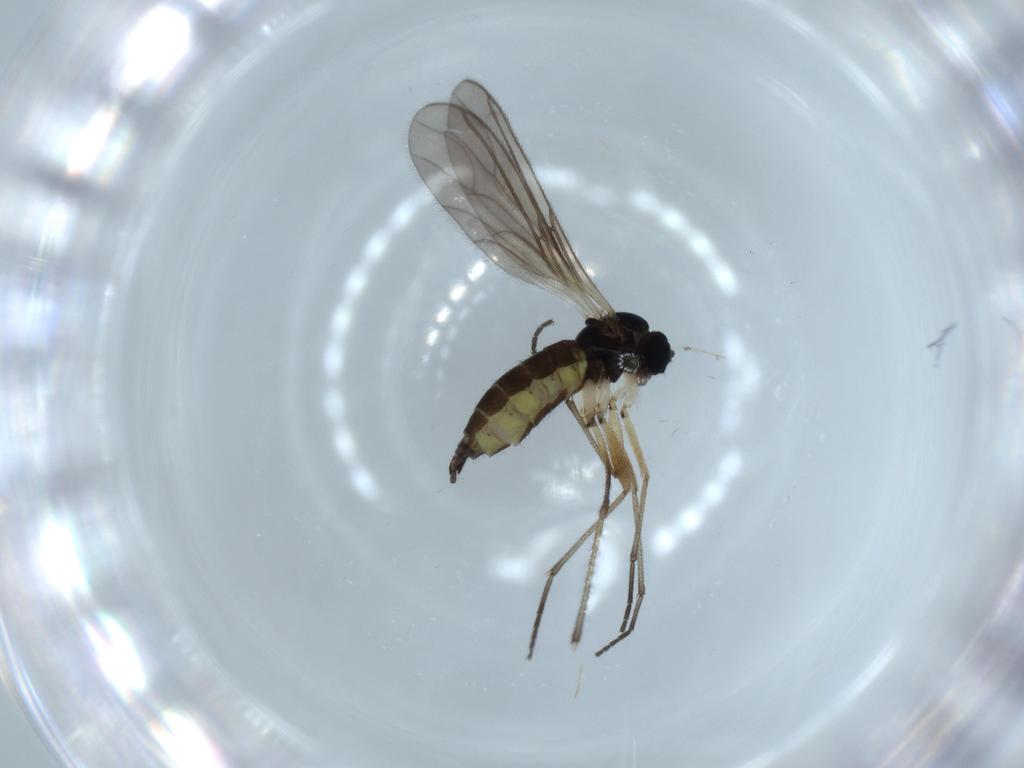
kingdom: Animalia
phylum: Arthropoda
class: Insecta
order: Diptera
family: Sciaridae
